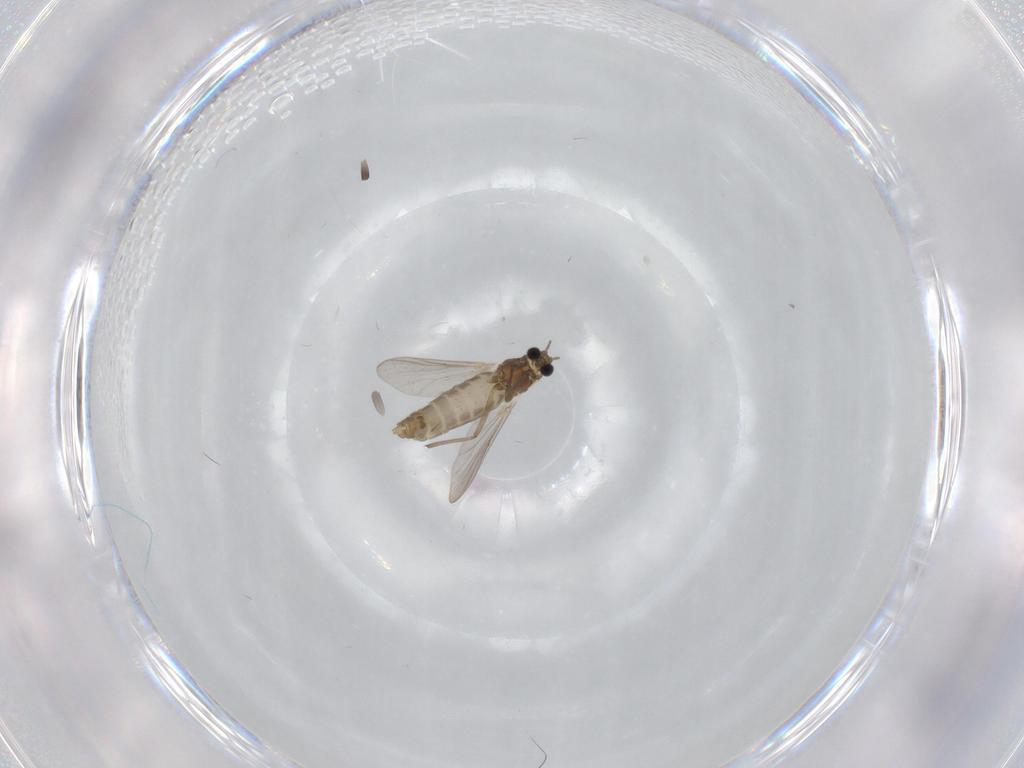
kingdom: Animalia
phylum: Arthropoda
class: Insecta
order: Diptera
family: Chironomidae
